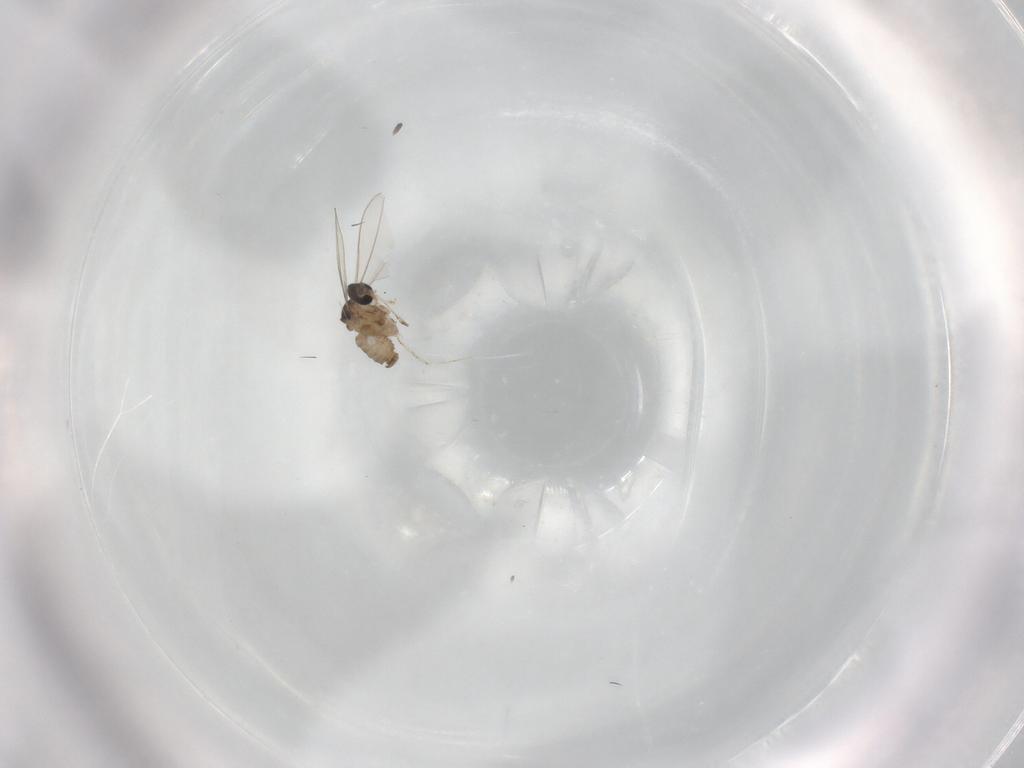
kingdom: Animalia
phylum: Arthropoda
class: Insecta
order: Diptera
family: Cecidomyiidae
